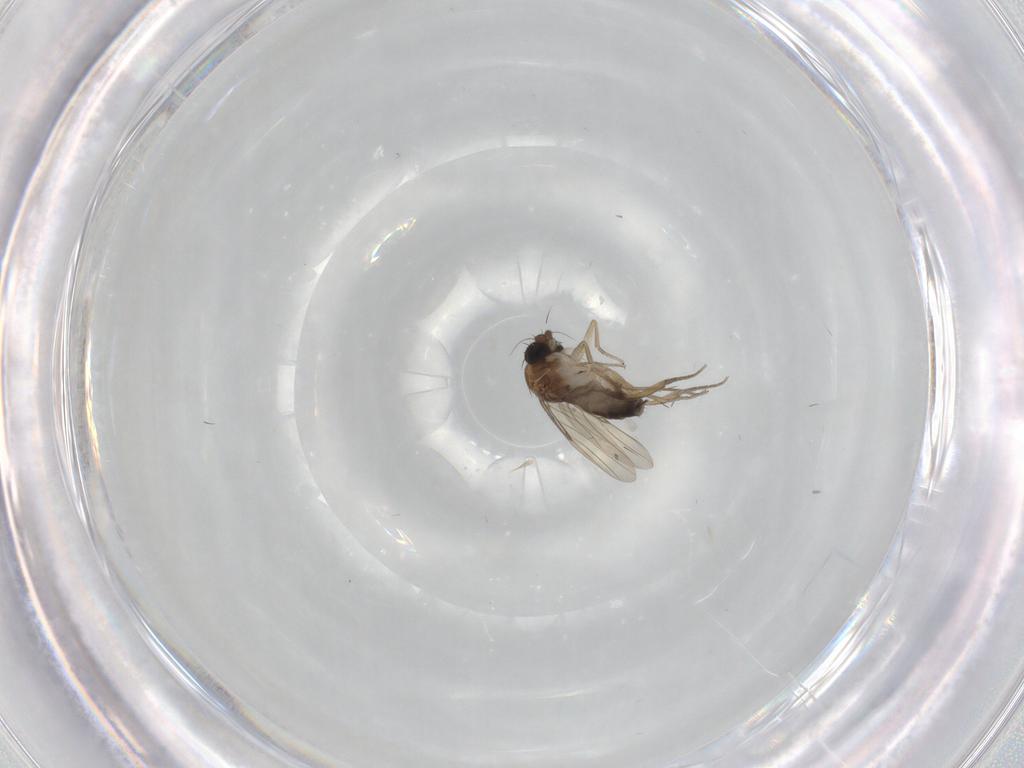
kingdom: Animalia
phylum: Arthropoda
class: Insecta
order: Diptera
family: Phoridae
